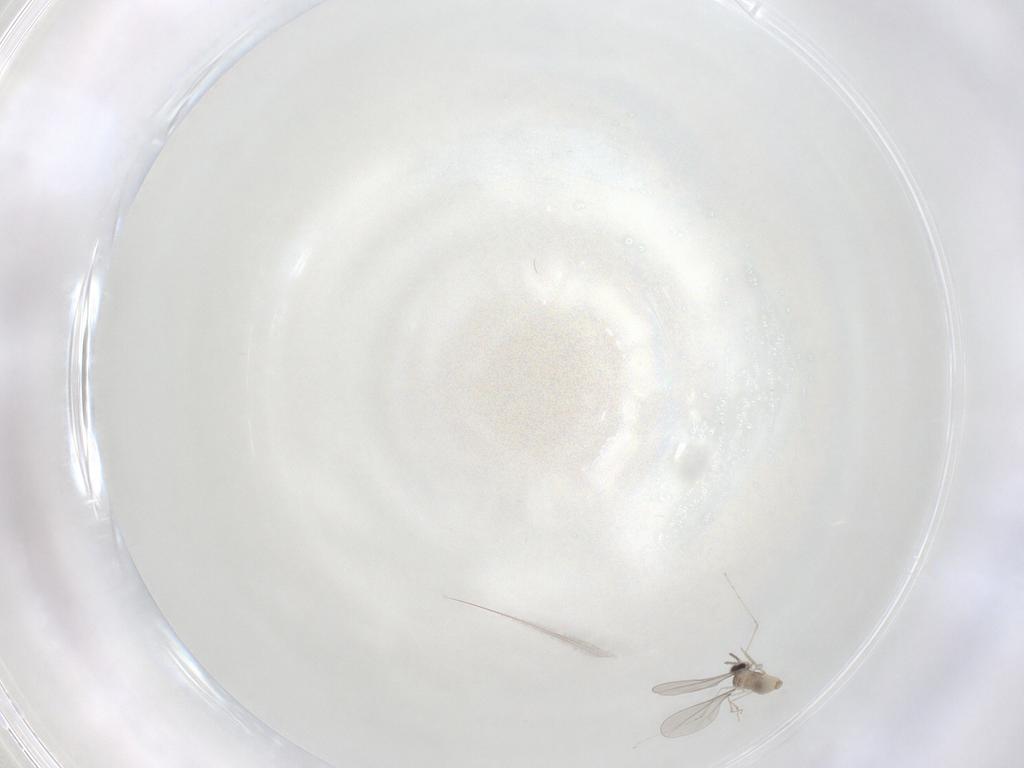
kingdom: Animalia
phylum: Arthropoda
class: Insecta
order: Diptera
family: Cecidomyiidae
